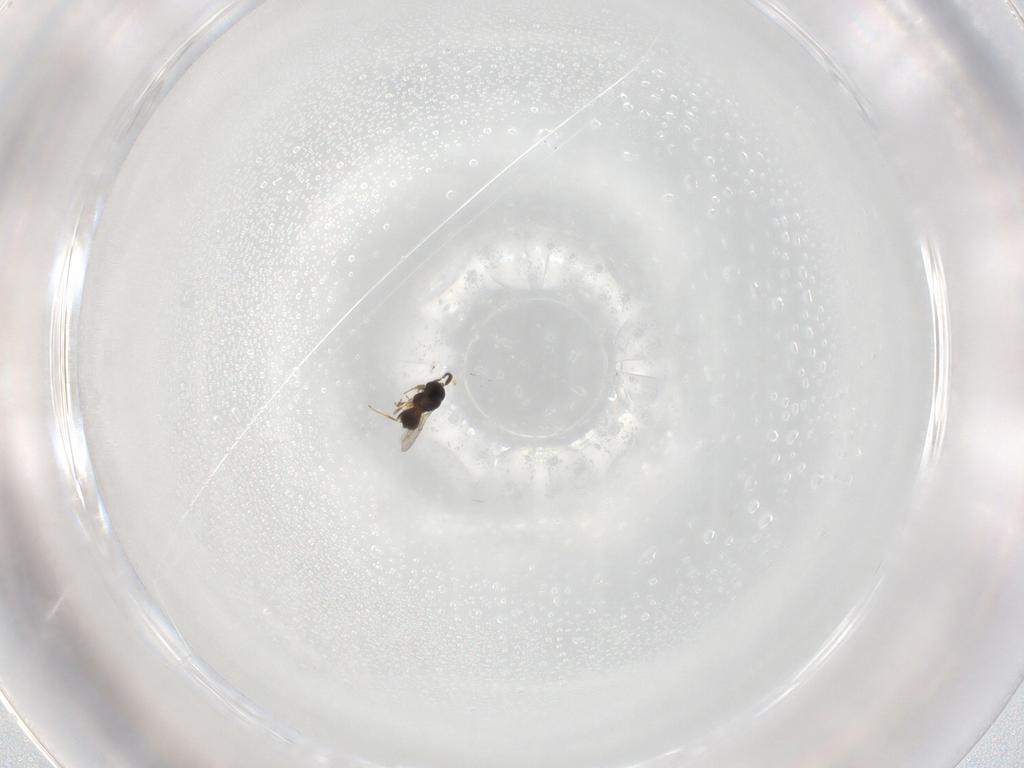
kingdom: Animalia
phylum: Arthropoda
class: Insecta
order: Hymenoptera
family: Scelionidae
